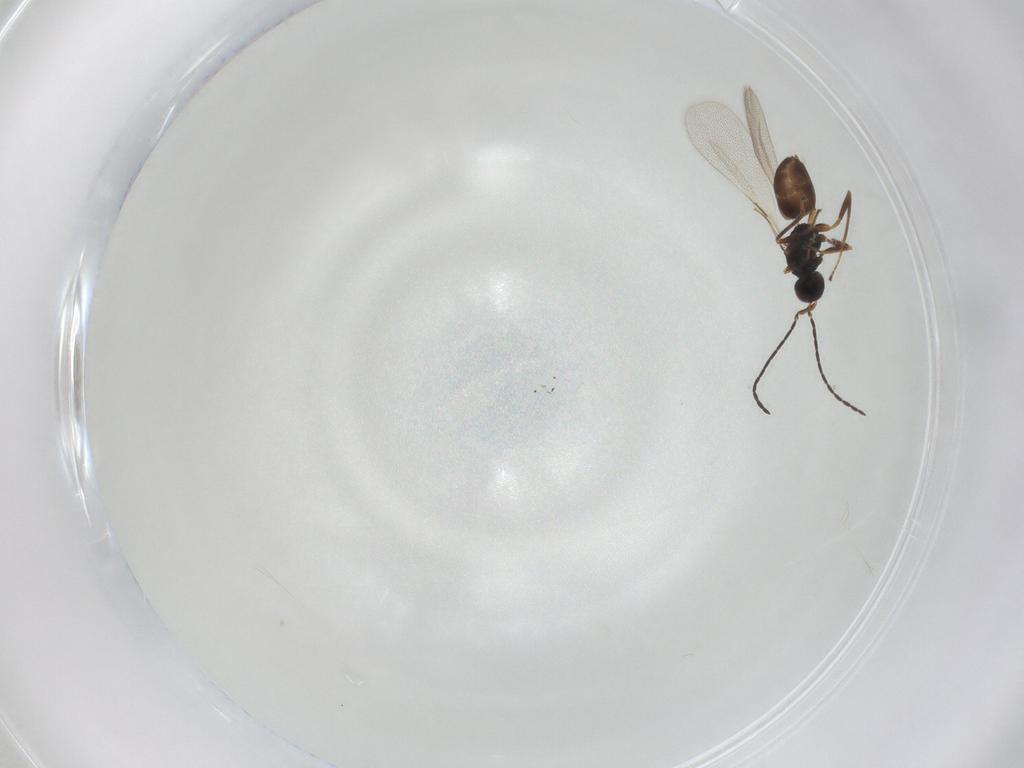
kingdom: Animalia
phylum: Arthropoda
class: Insecta
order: Hymenoptera
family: Mymaridae
